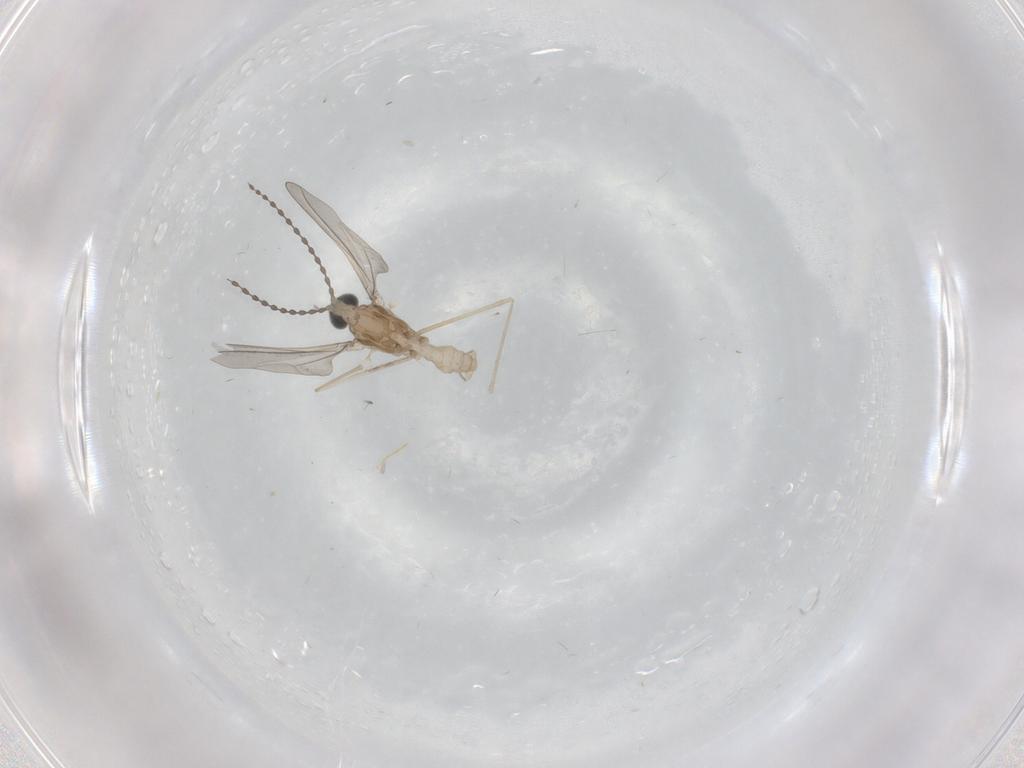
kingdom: Animalia
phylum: Arthropoda
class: Insecta
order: Diptera
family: Cecidomyiidae
